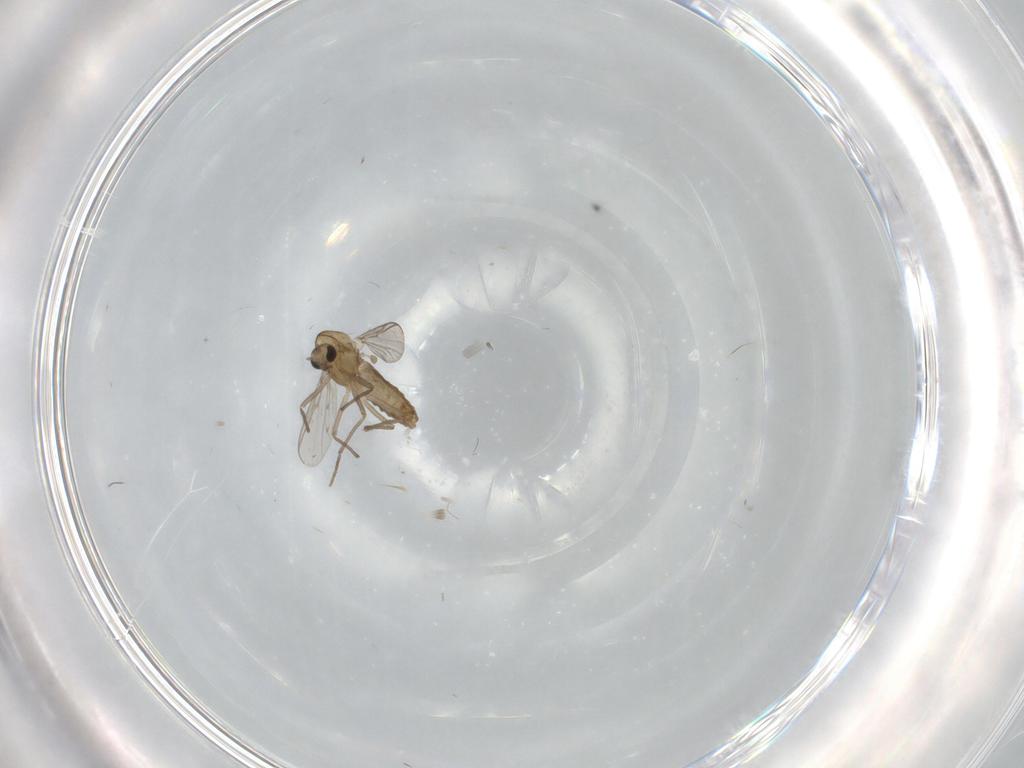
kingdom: Animalia
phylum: Arthropoda
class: Insecta
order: Diptera
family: Chironomidae
